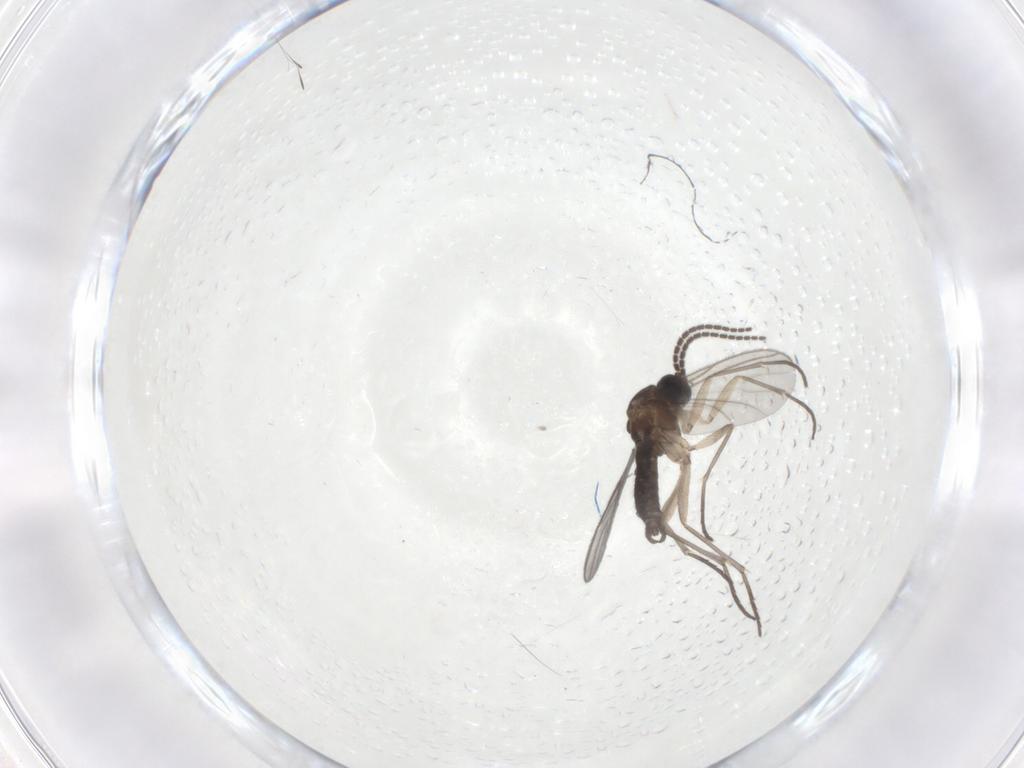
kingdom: Animalia
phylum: Arthropoda
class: Insecta
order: Diptera
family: Sciaridae
